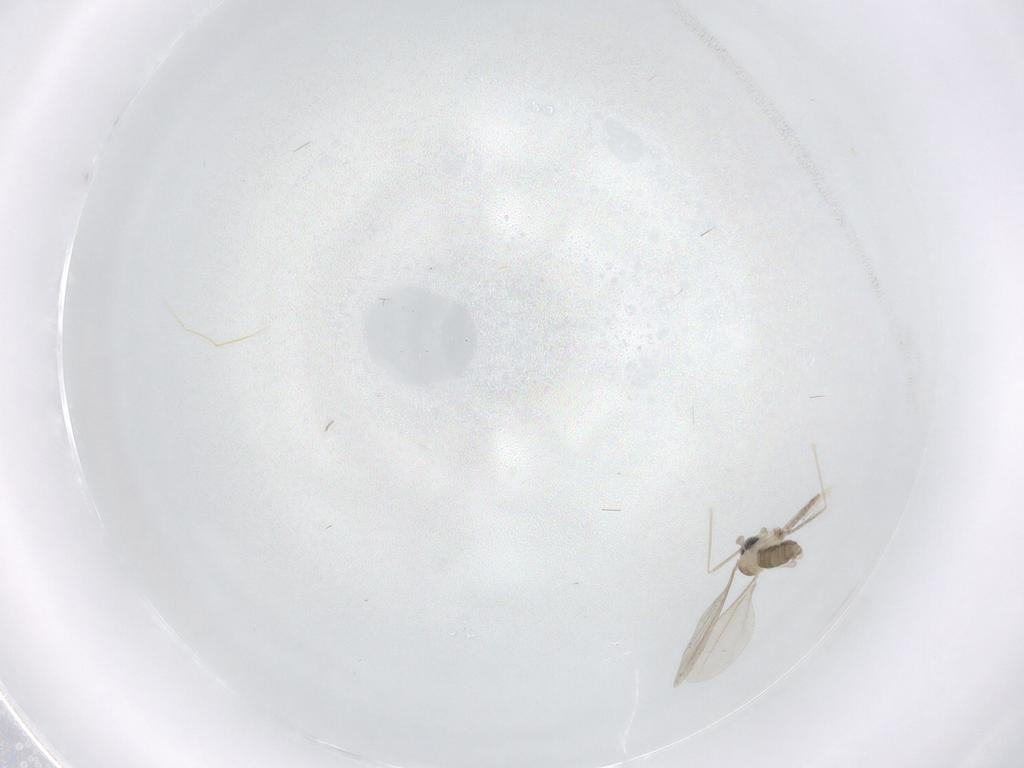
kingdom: Animalia
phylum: Arthropoda
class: Insecta
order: Diptera
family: Cecidomyiidae
